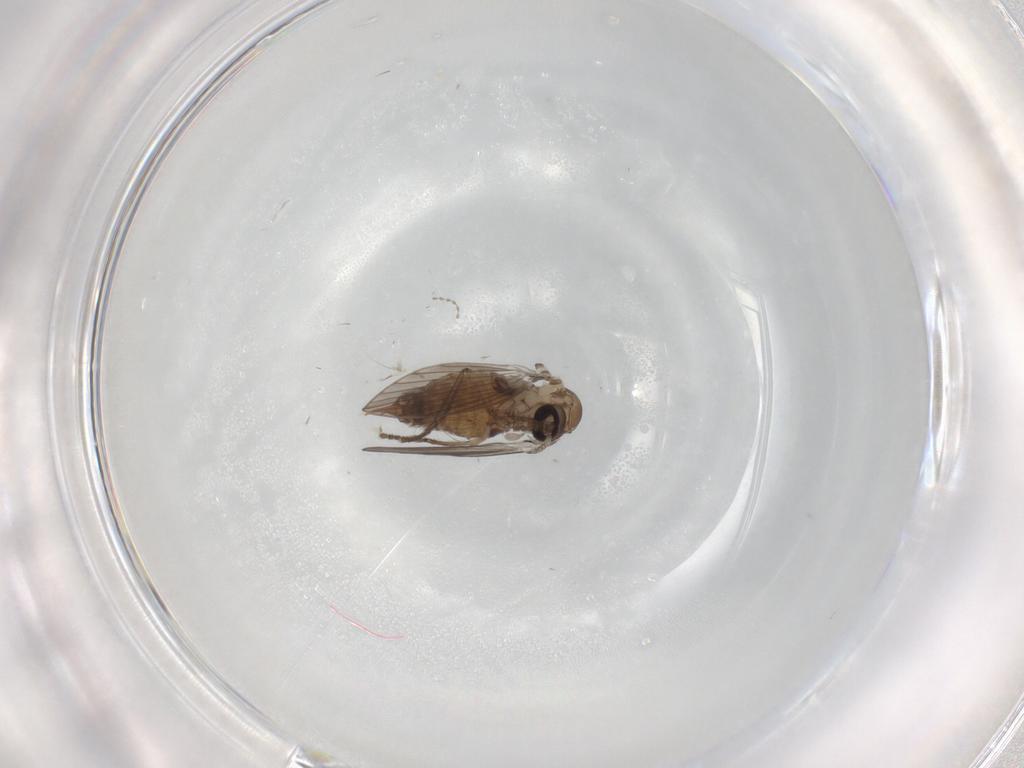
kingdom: Animalia
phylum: Arthropoda
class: Insecta
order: Diptera
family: Psychodidae
